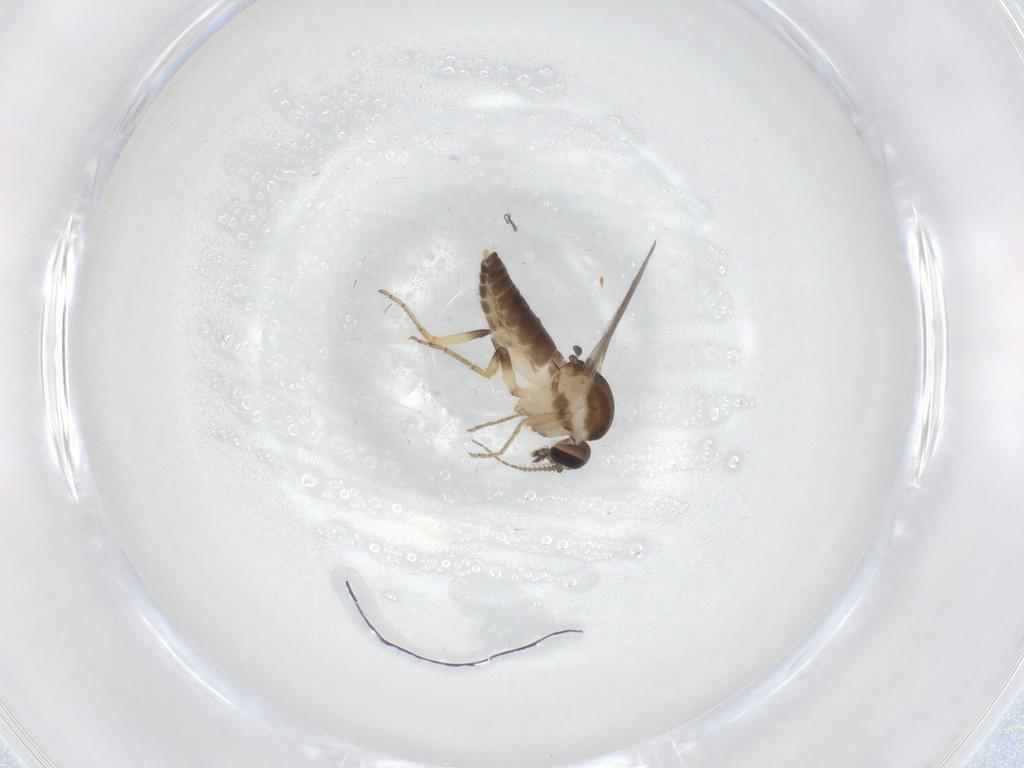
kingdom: Animalia
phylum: Arthropoda
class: Insecta
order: Diptera
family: Ceratopogonidae
